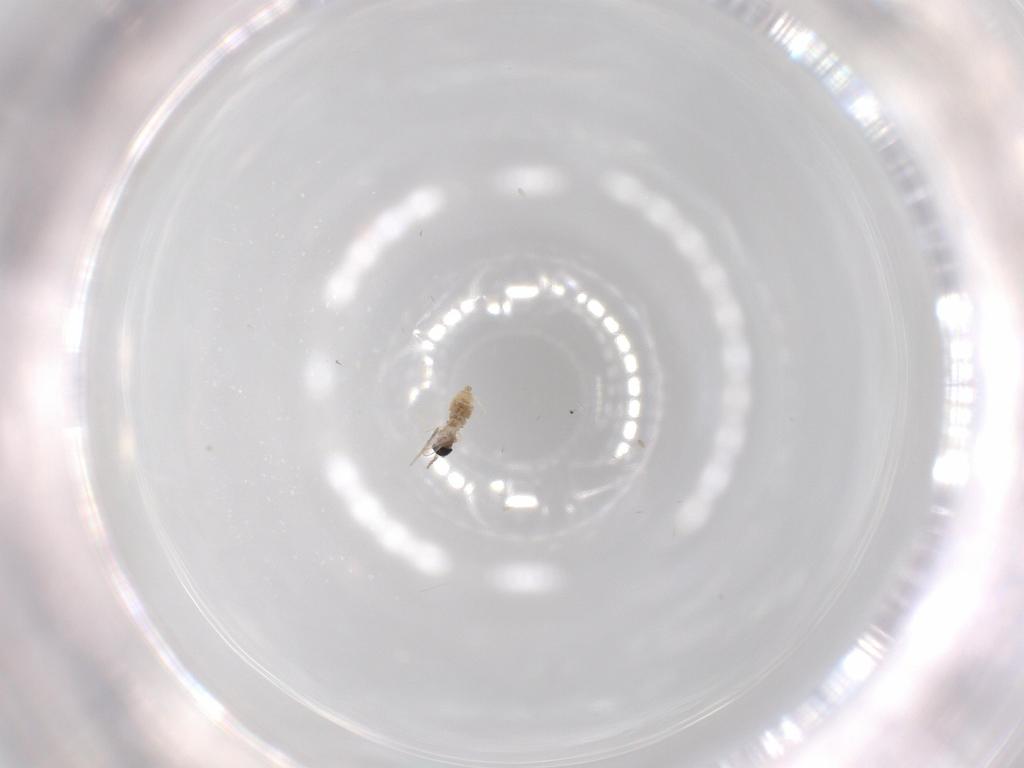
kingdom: Animalia
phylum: Arthropoda
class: Insecta
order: Diptera
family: Cecidomyiidae
